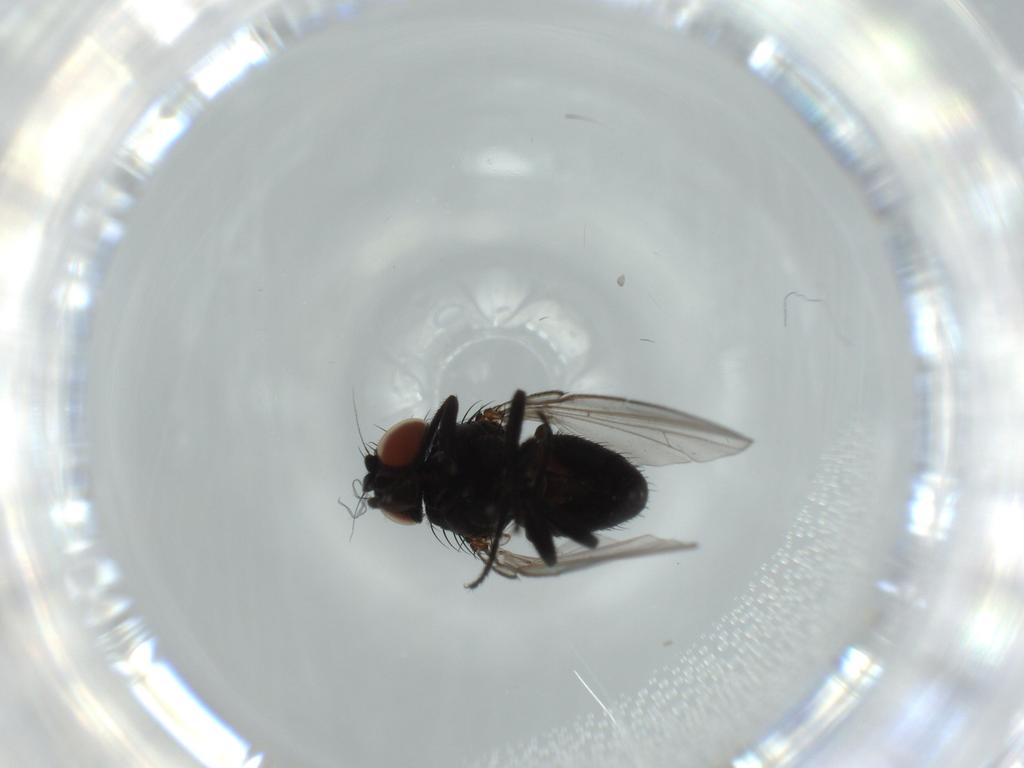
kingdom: Animalia
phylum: Arthropoda
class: Insecta
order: Diptera
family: Milichiidae
